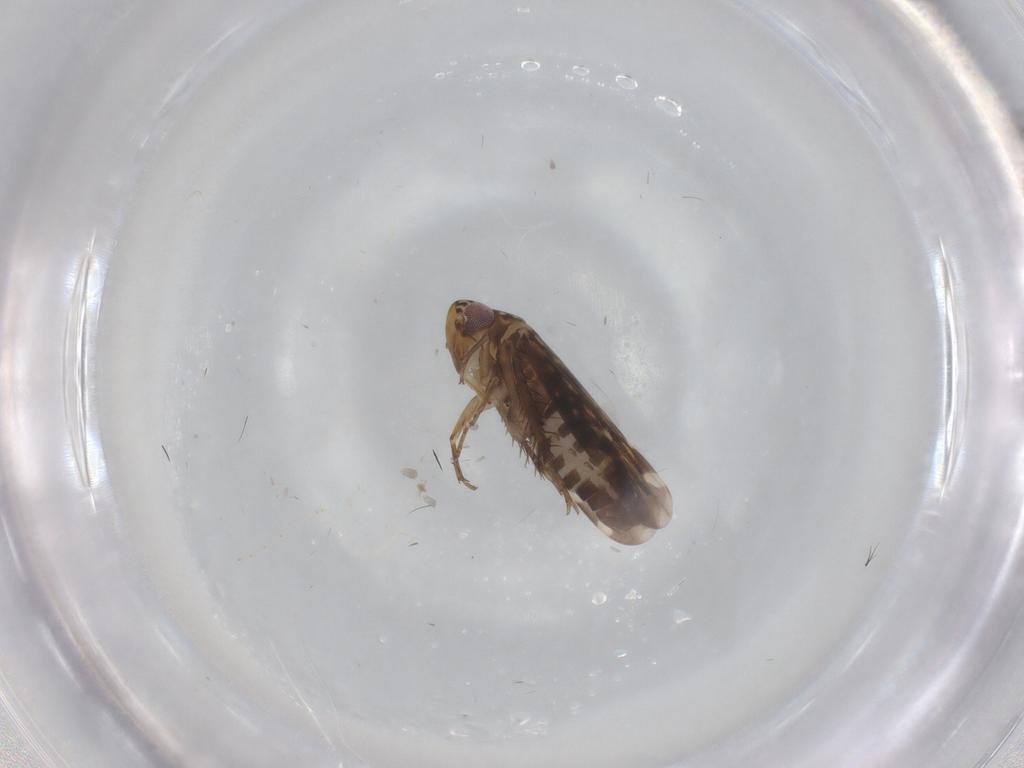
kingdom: Animalia
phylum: Arthropoda
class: Insecta
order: Hemiptera
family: Cicadellidae
